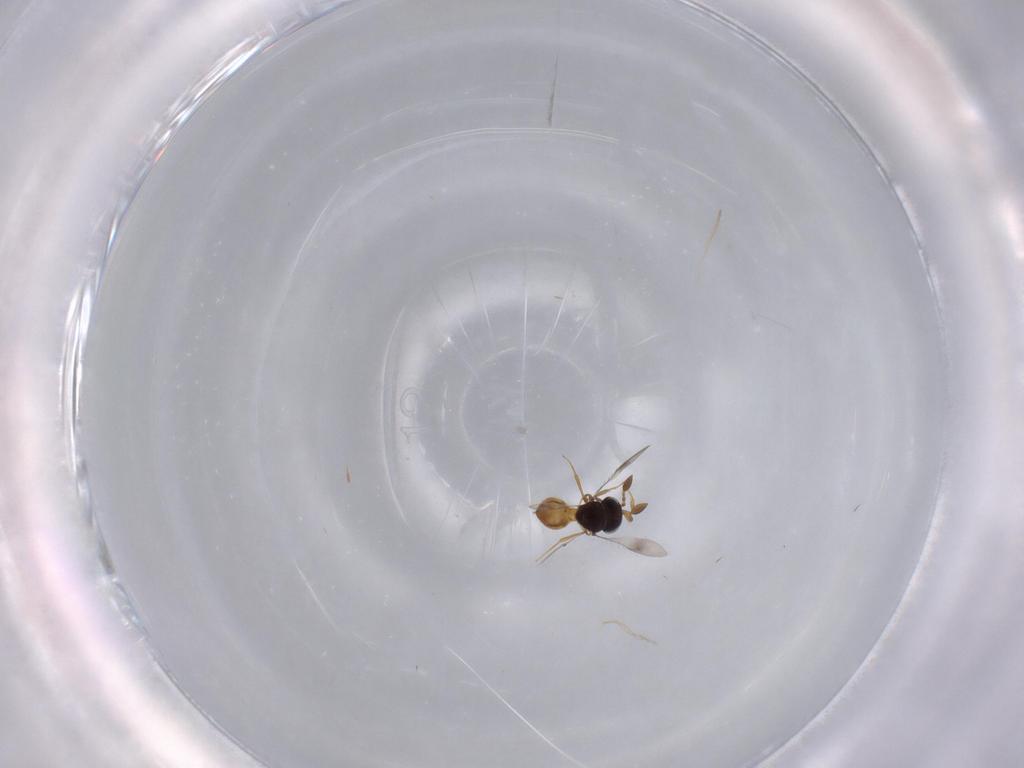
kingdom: Animalia
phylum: Arthropoda
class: Insecta
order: Hymenoptera
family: Scelionidae
